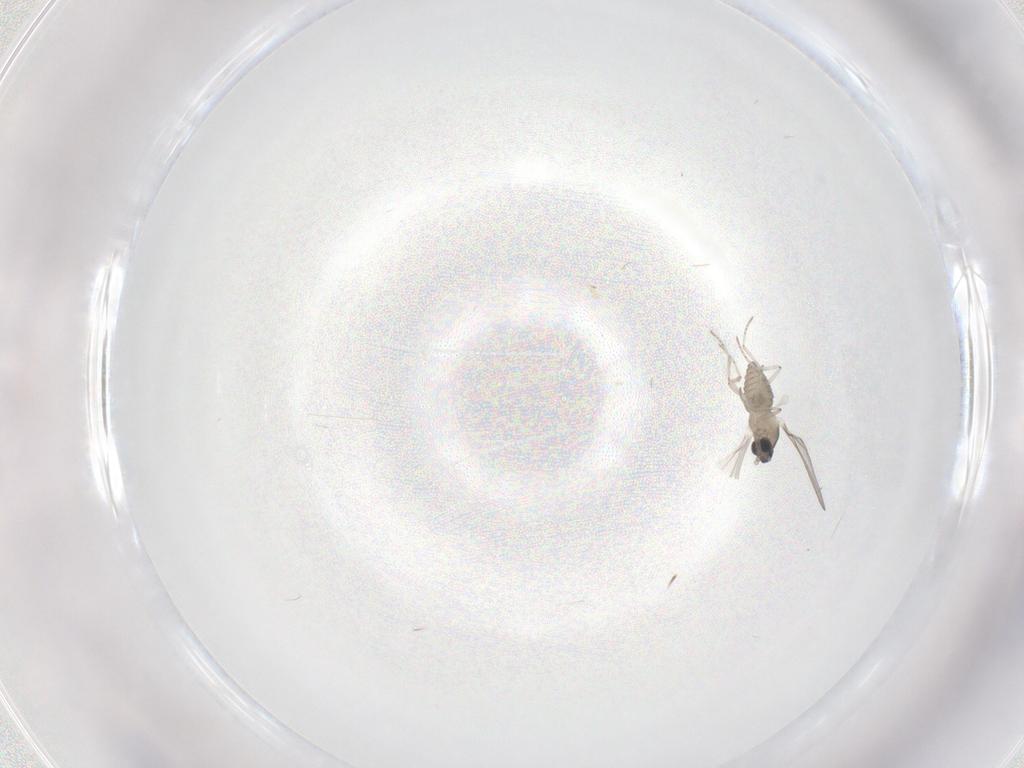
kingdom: Animalia
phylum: Arthropoda
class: Insecta
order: Diptera
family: Cecidomyiidae
